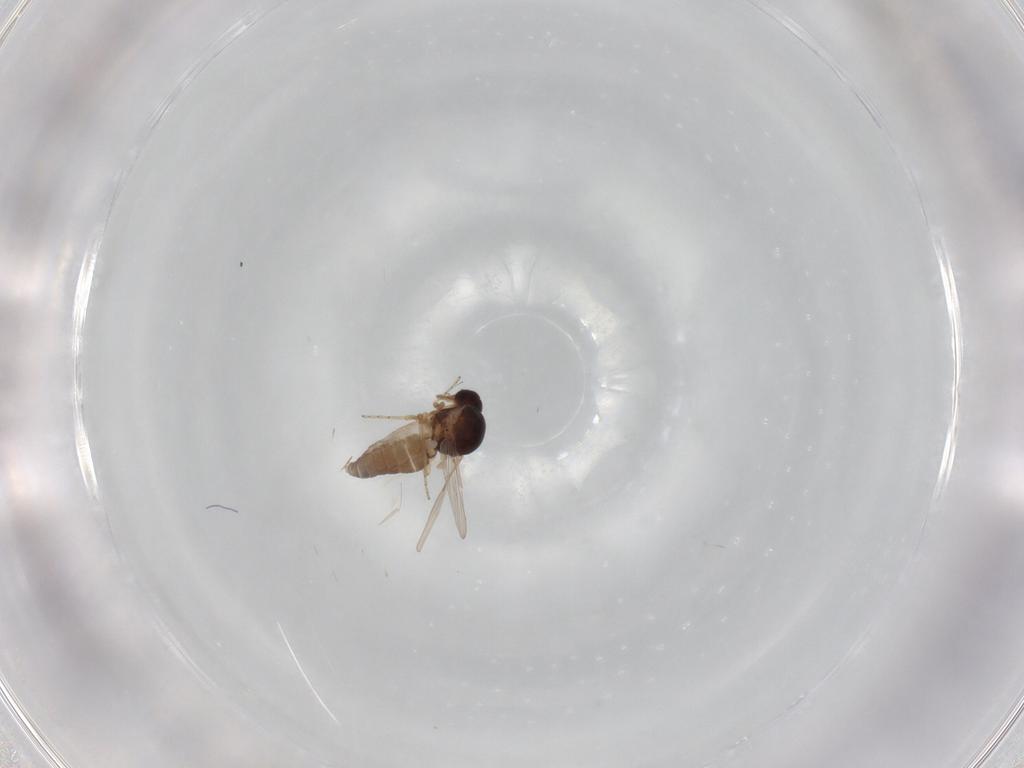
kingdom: Animalia
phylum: Arthropoda
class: Insecta
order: Diptera
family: Ceratopogonidae
